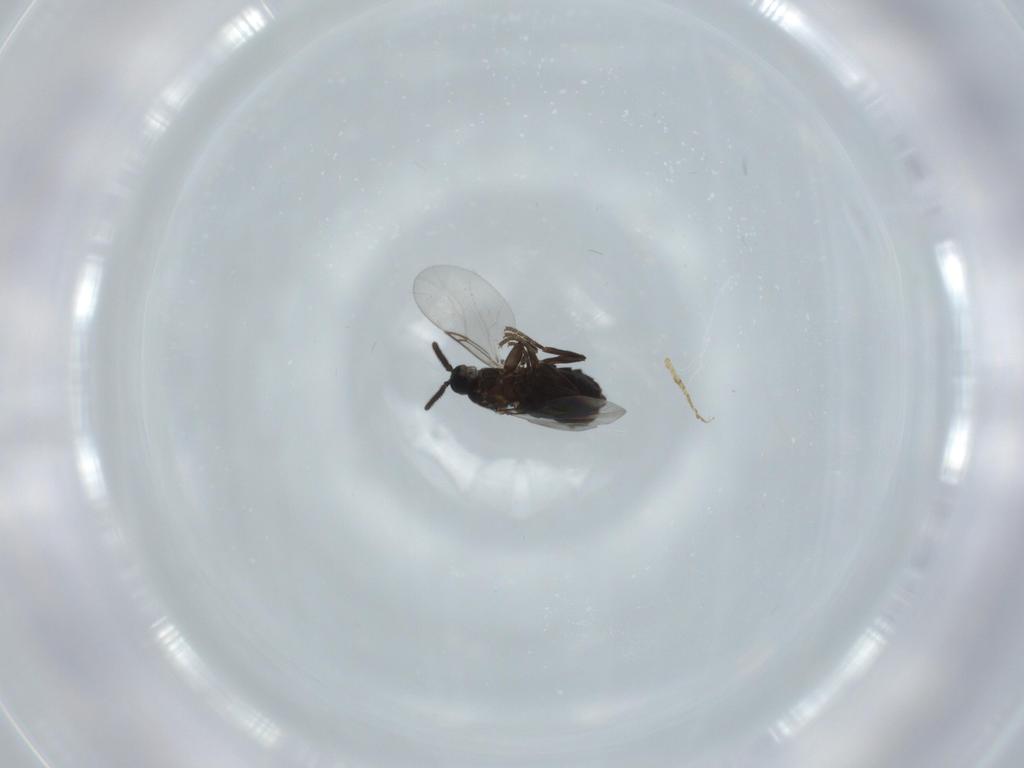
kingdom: Animalia
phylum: Arthropoda
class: Insecta
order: Diptera
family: Scatopsidae
